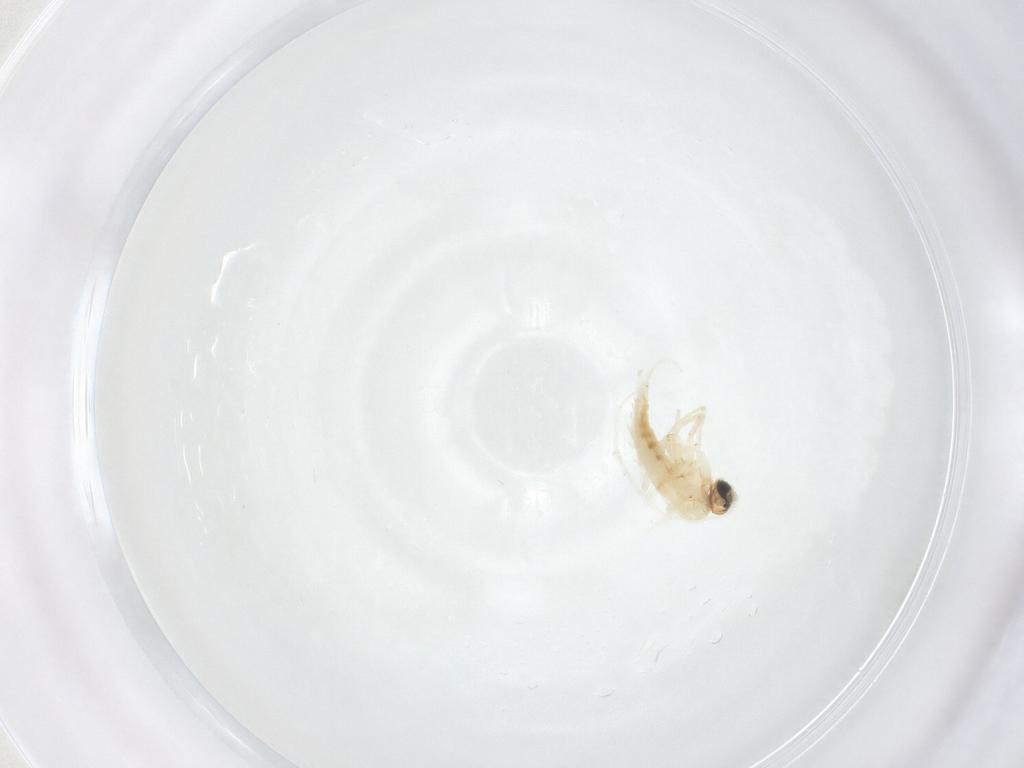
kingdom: Animalia
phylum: Arthropoda
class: Insecta
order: Diptera
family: Sciaridae
